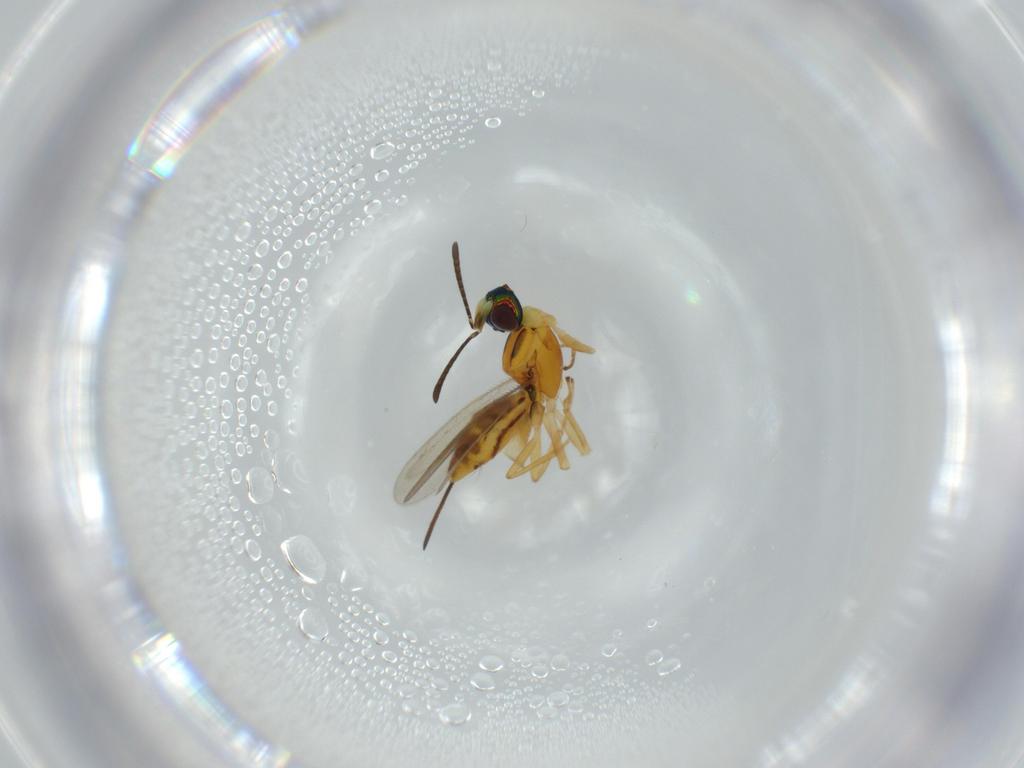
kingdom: Animalia
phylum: Arthropoda
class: Insecta
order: Hymenoptera
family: Eupelmidae
